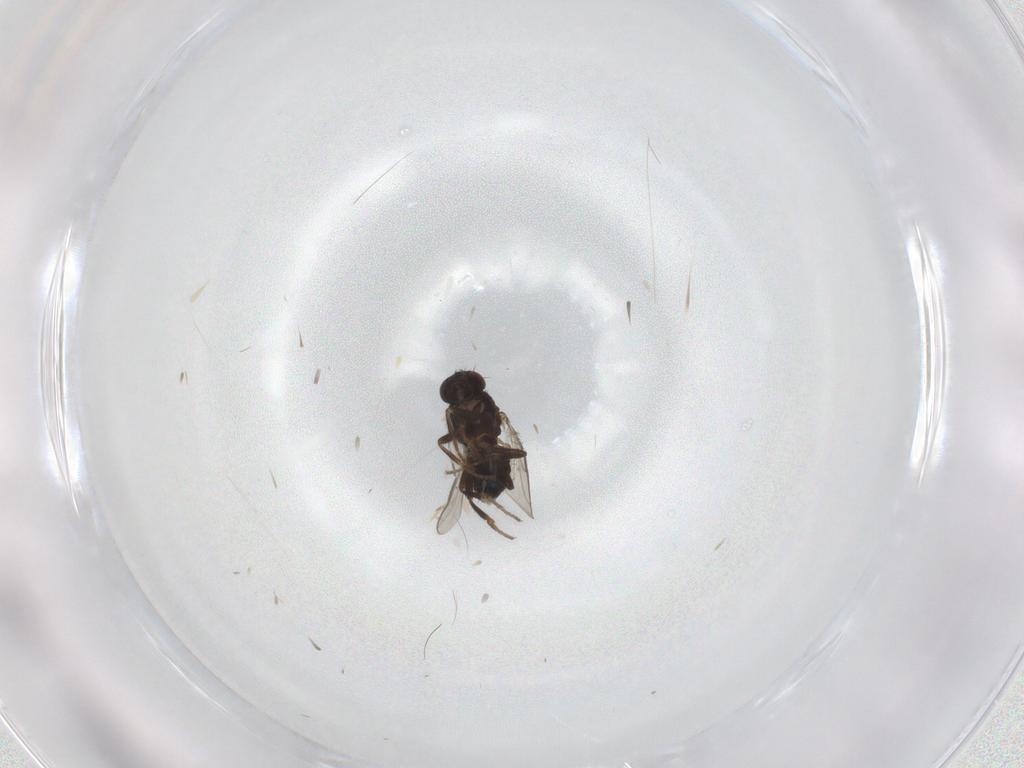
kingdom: Animalia
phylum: Arthropoda
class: Insecta
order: Diptera
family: Sphaeroceridae
